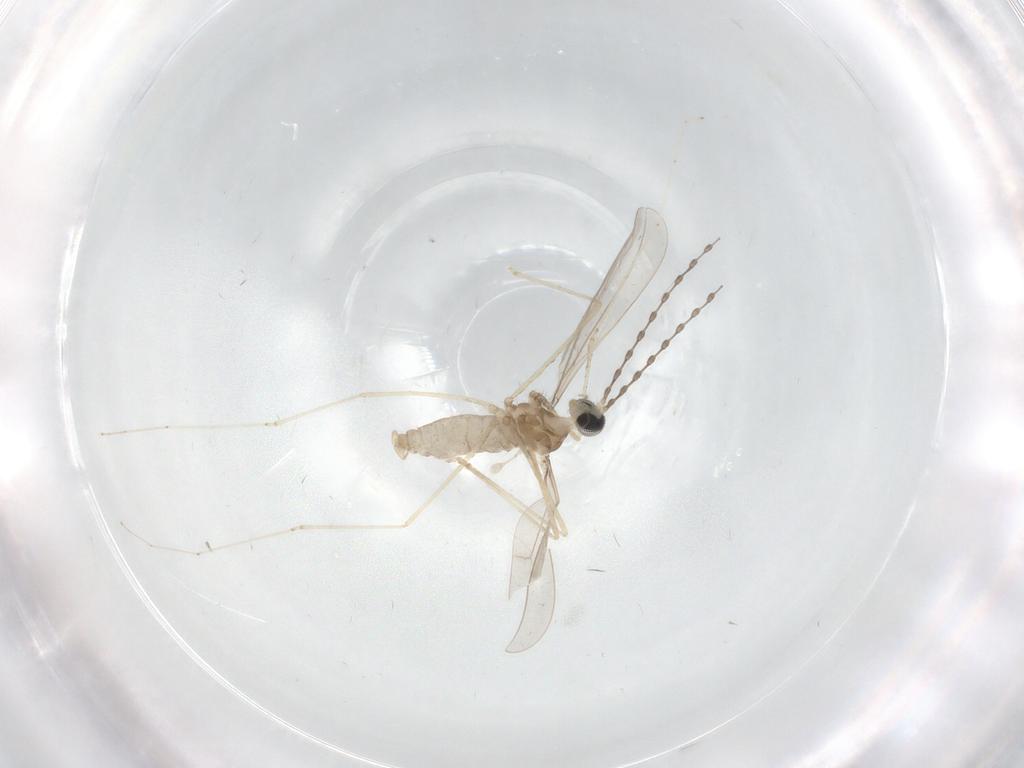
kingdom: Animalia
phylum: Arthropoda
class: Insecta
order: Diptera
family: Cecidomyiidae
